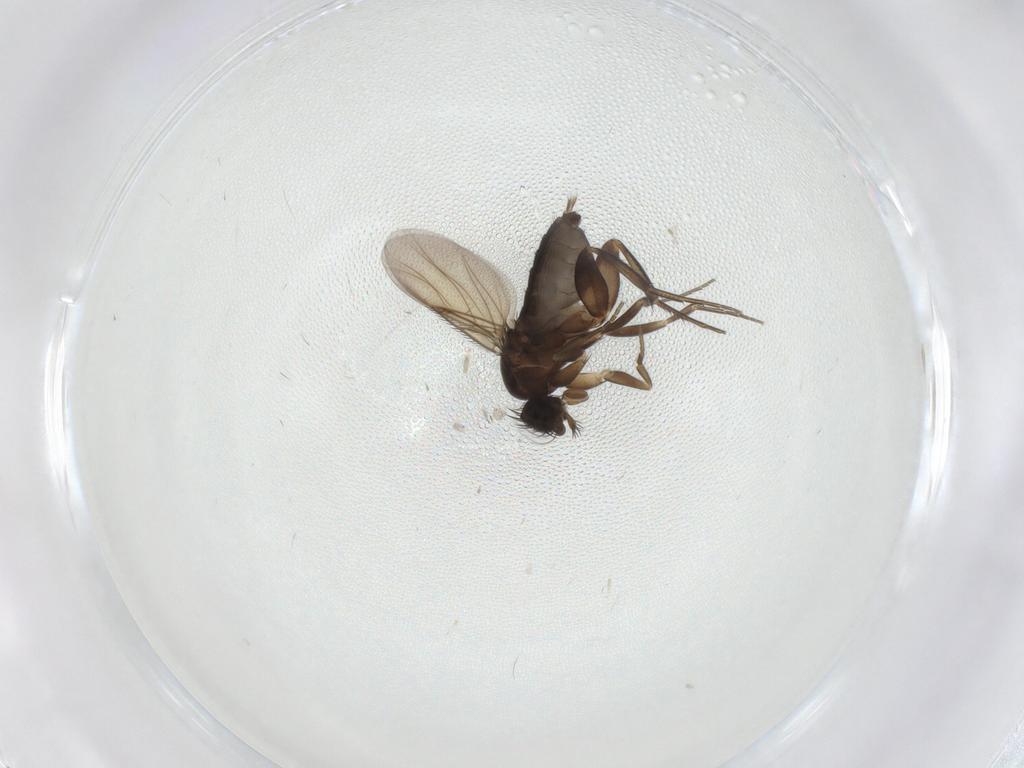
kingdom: Animalia
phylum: Arthropoda
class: Insecta
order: Diptera
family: Phoridae
